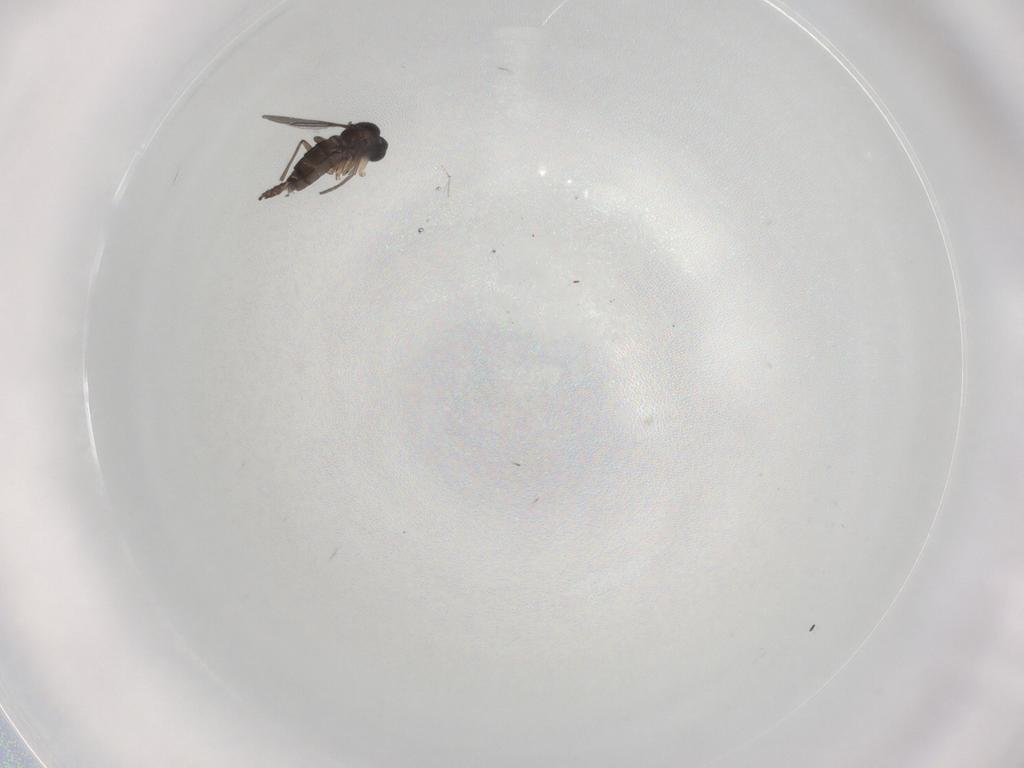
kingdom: Animalia
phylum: Arthropoda
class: Insecta
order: Diptera
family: Sciaridae
